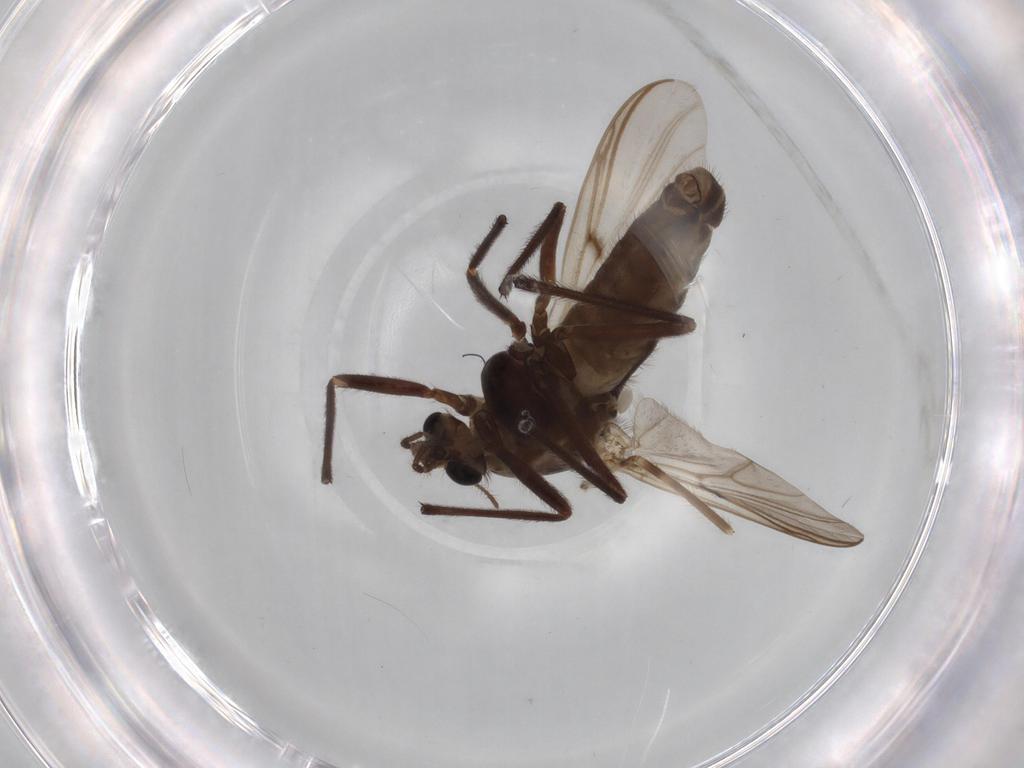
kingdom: Animalia
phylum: Arthropoda
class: Insecta
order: Diptera
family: Chironomidae
